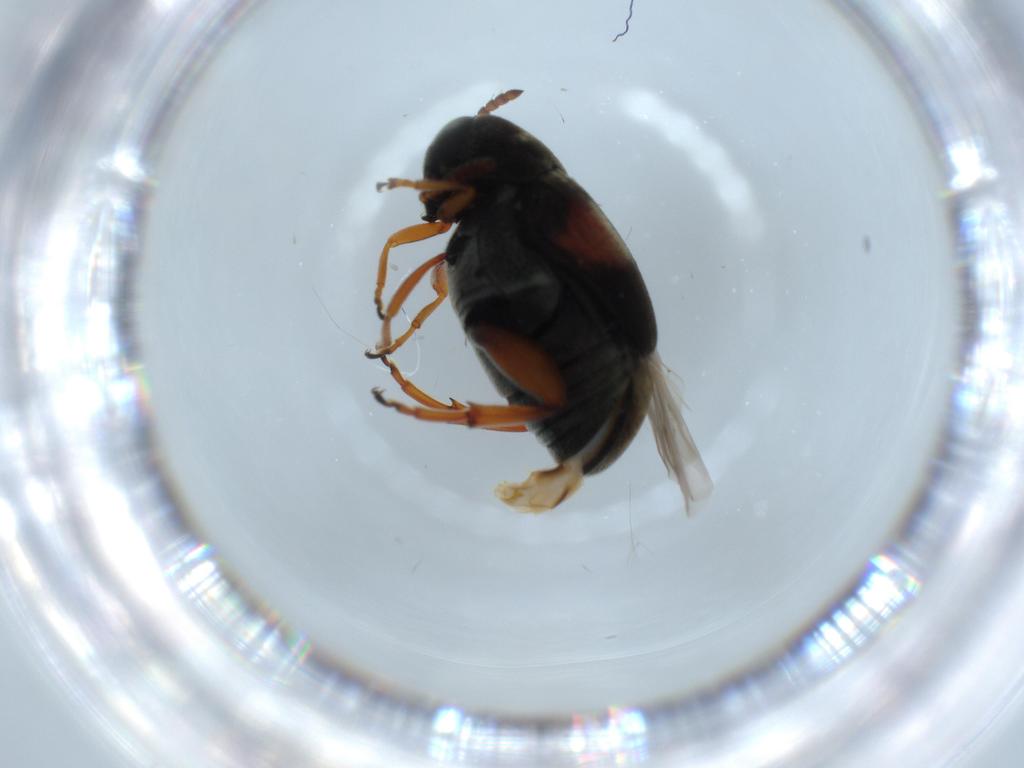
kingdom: Animalia
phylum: Arthropoda
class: Insecta
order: Coleoptera
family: Chrysomelidae
